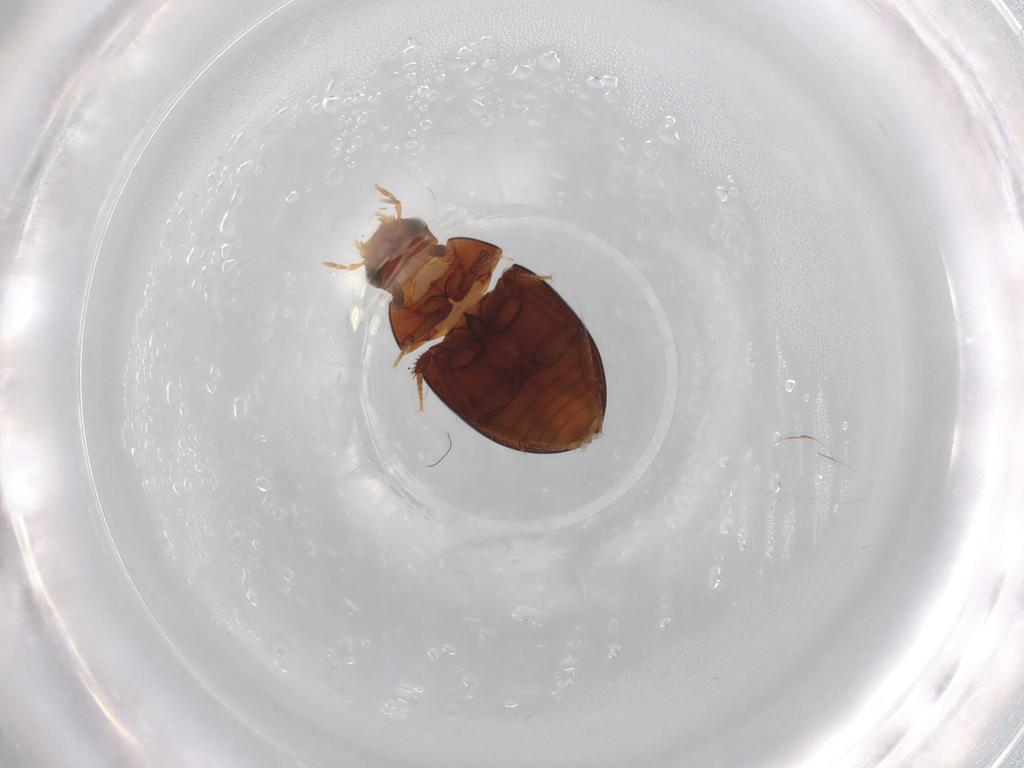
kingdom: Animalia
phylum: Arthropoda
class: Insecta
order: Coleoptera
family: Hydrophilidae
